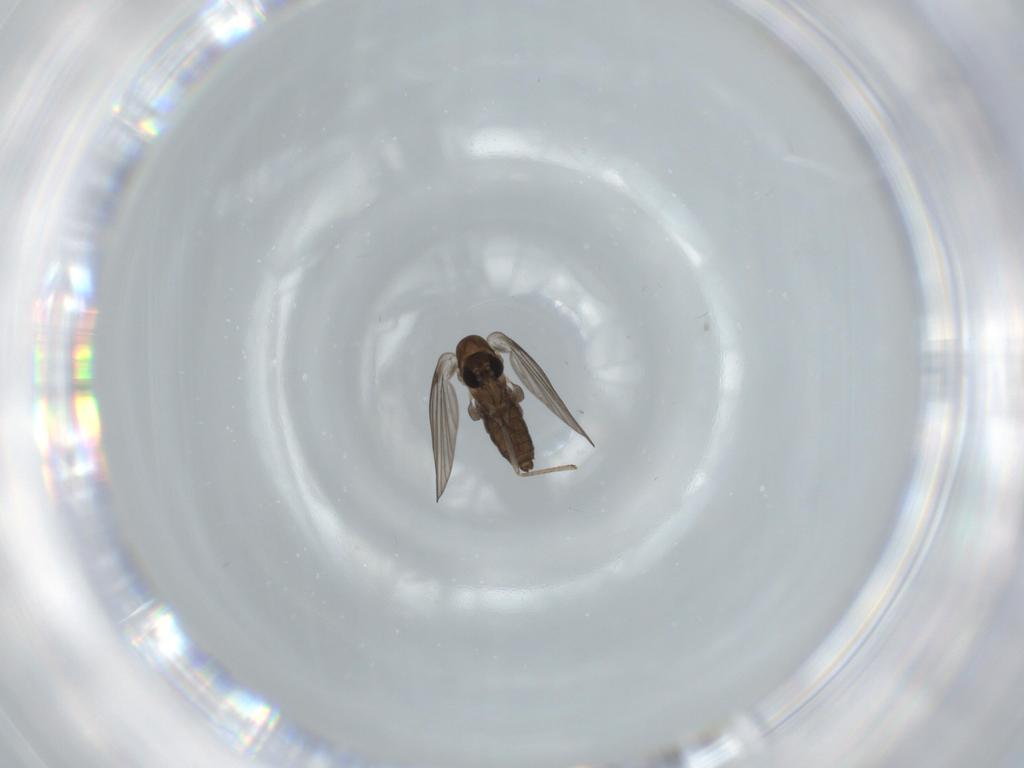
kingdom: Animalia
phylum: Arthropoda
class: Insecta
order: Diptera
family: Psychodidae
